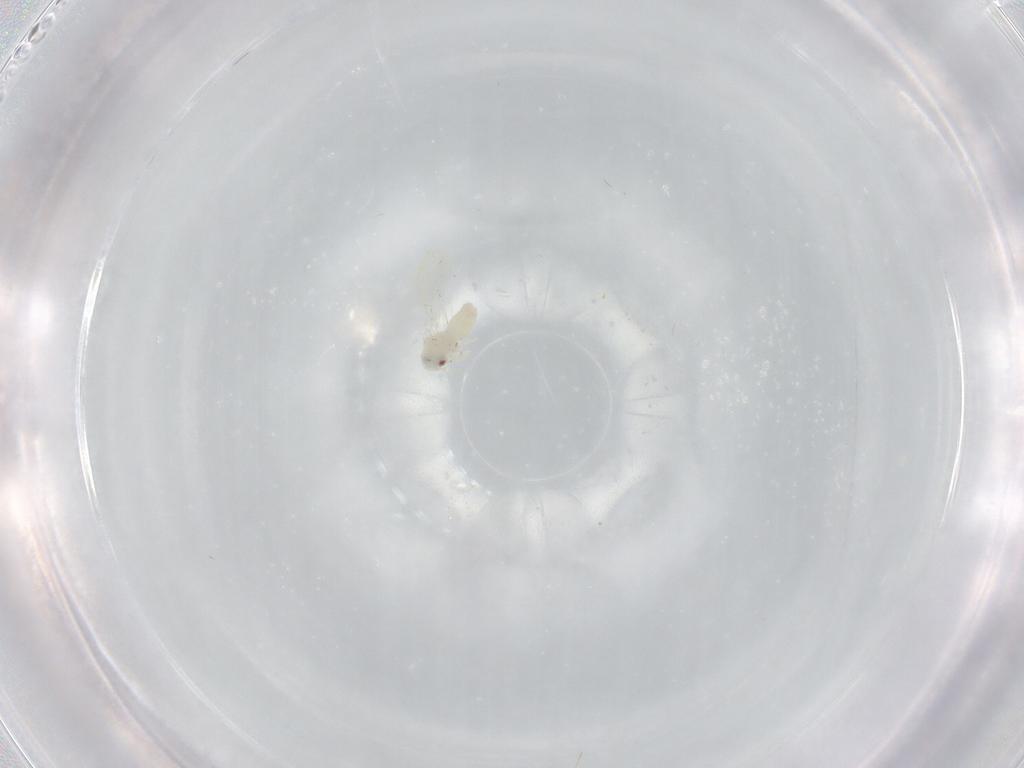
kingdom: Animalia
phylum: Arthropoda
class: Insecta
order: Hemiptera
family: Aleyrodidae
